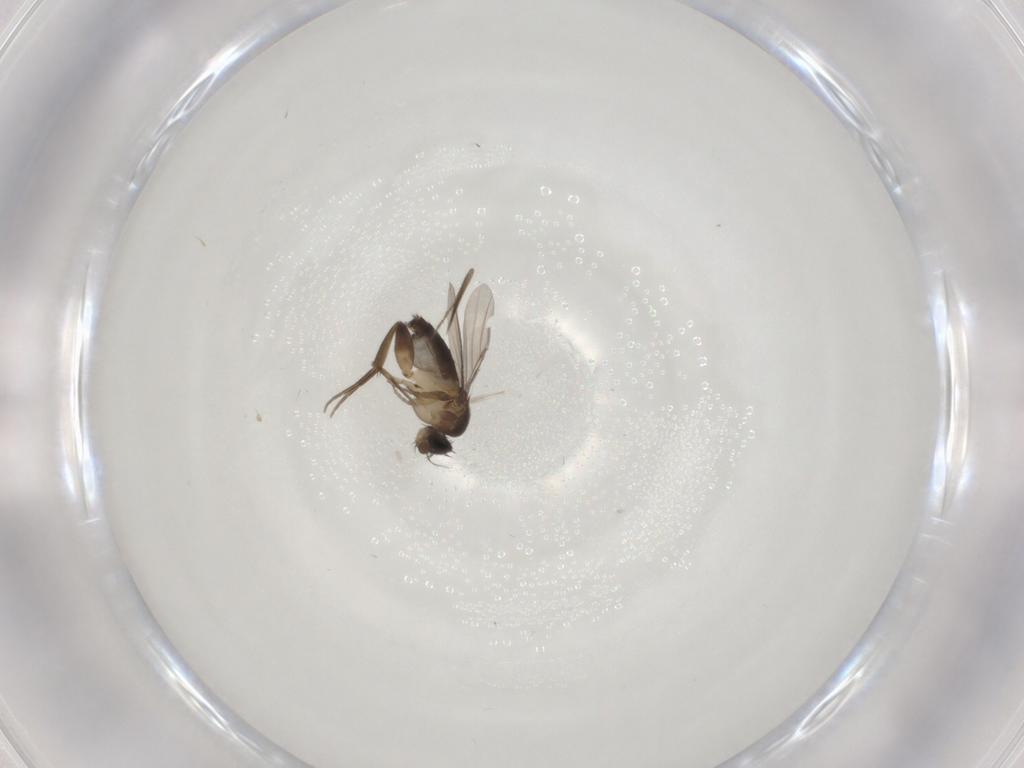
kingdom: Animalia
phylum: Arthropoda
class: Insecta
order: Diptera
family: Phoridae
